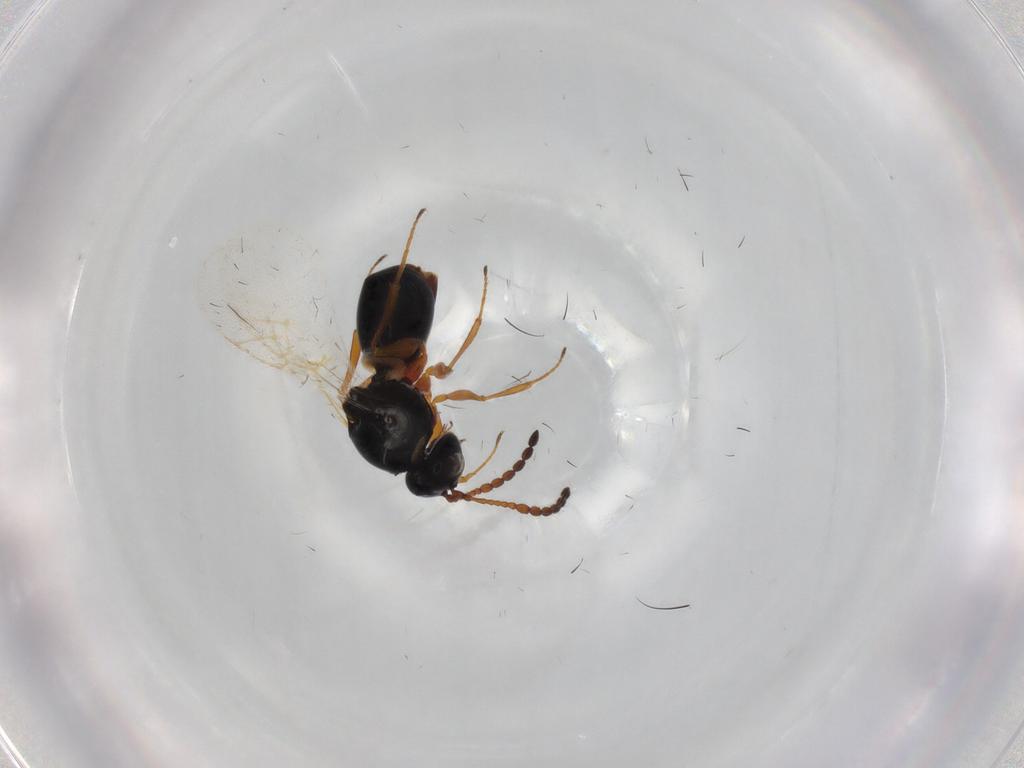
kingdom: Animalia
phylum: Arthropoda
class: Insecta
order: Hymenoptera
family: Figitidae
